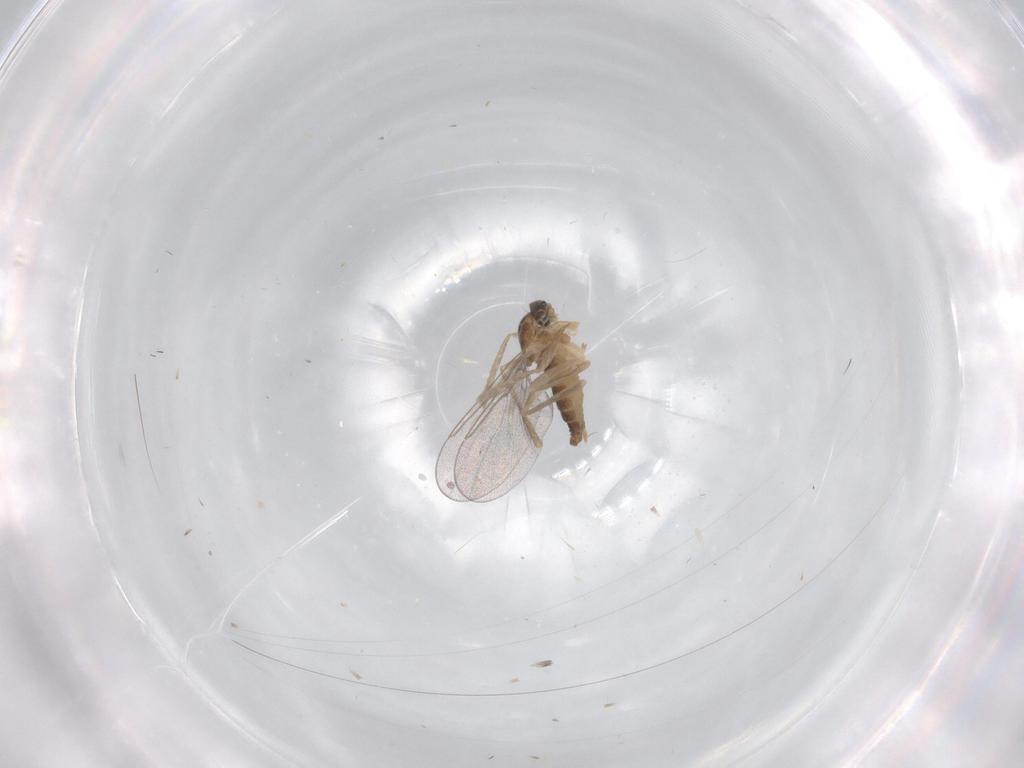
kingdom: Animalia
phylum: Arthropoda
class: Insecta
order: Diptera
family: Cecidomyiidae
